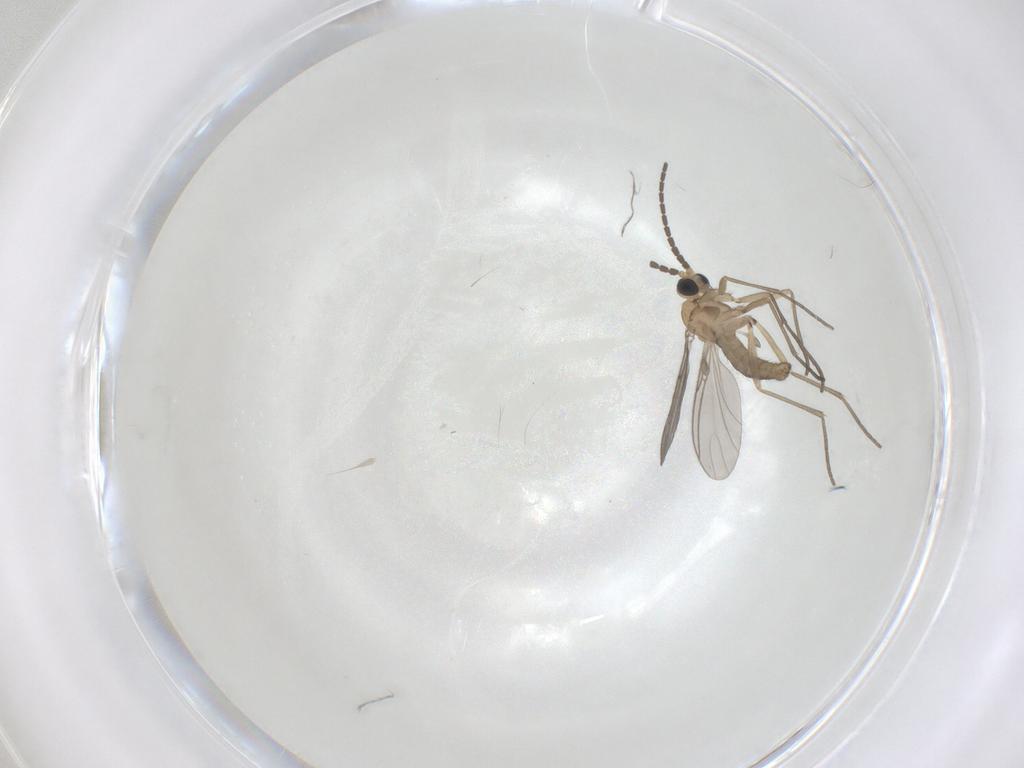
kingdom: Animalia
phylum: Arthropoda
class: Insecta
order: Diptera
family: Sciaridae
